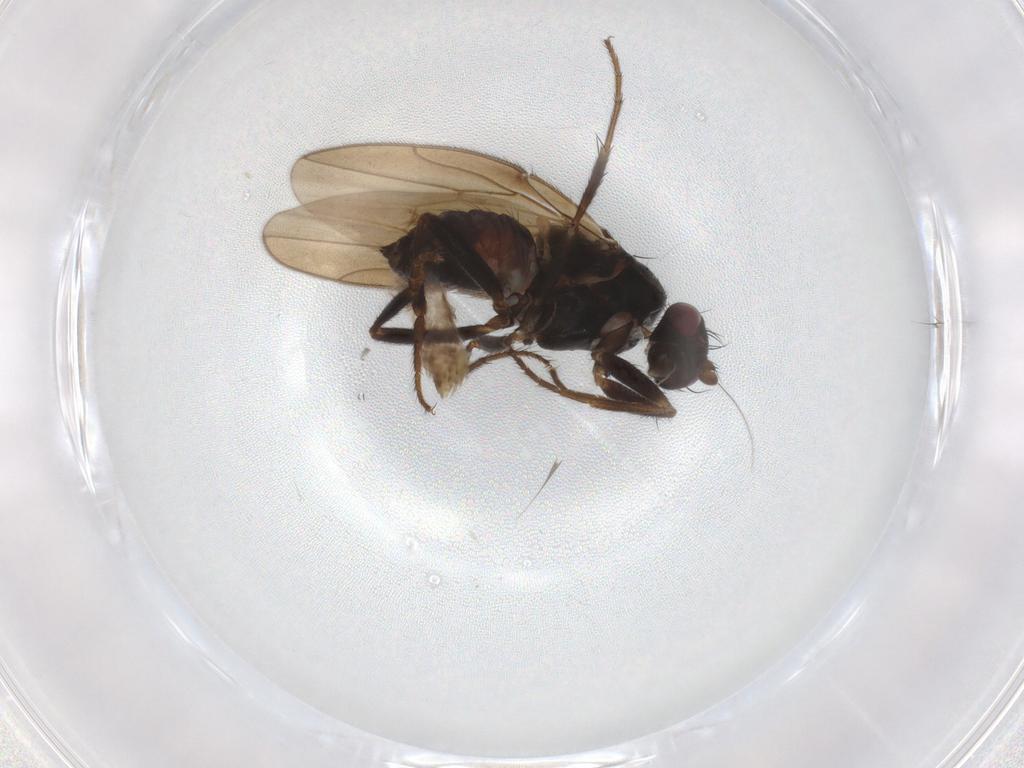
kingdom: Animalia
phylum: Arthropoda
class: Insecta
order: Diptera
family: Sphaeroceridae
